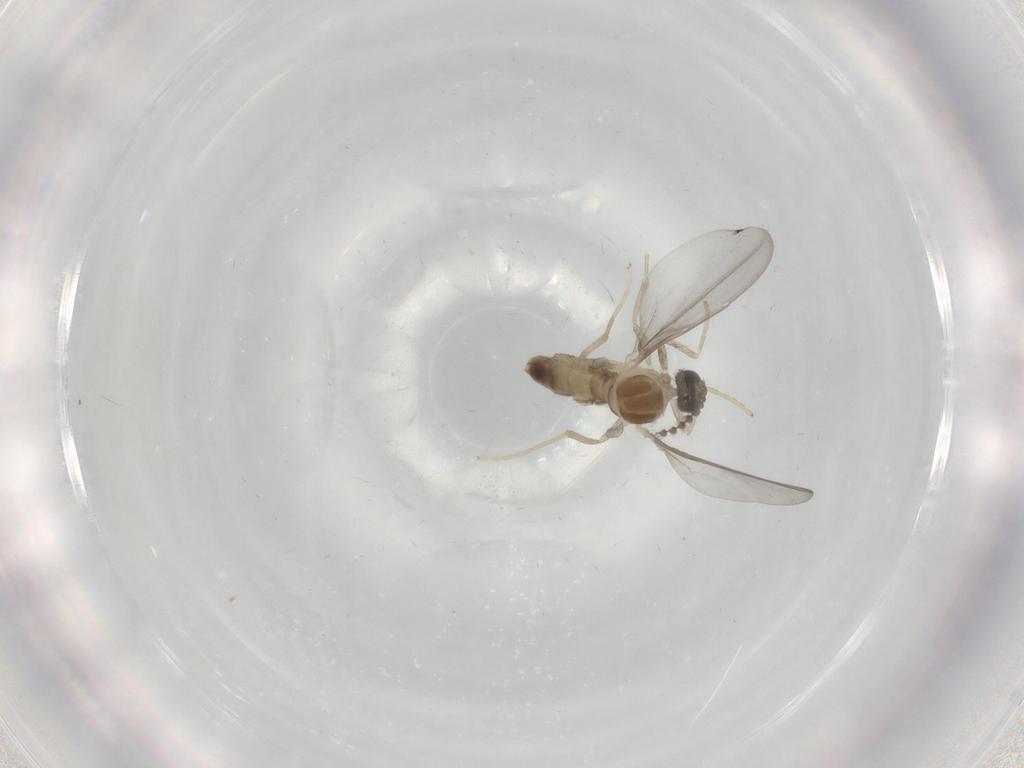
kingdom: Animalia
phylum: Arthropoda
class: Insecta
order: Diptera
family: Cecidomyiidae
